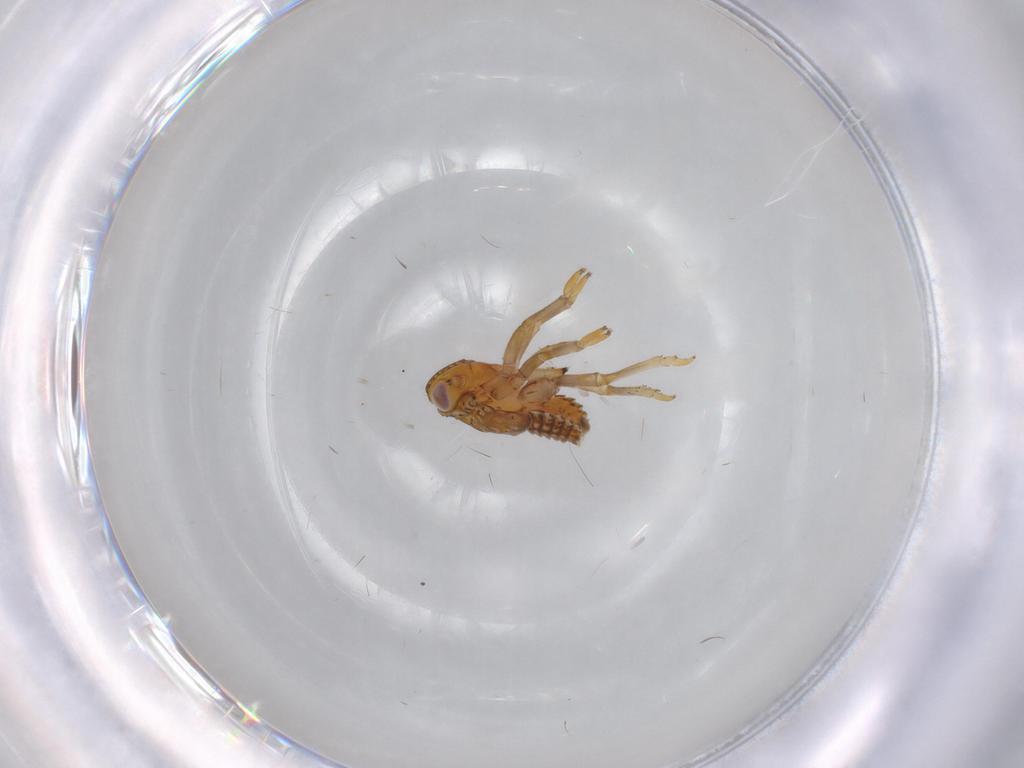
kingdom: Animalia
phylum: Arthropoda
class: Insecta
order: Hemiptera
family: Issidae
